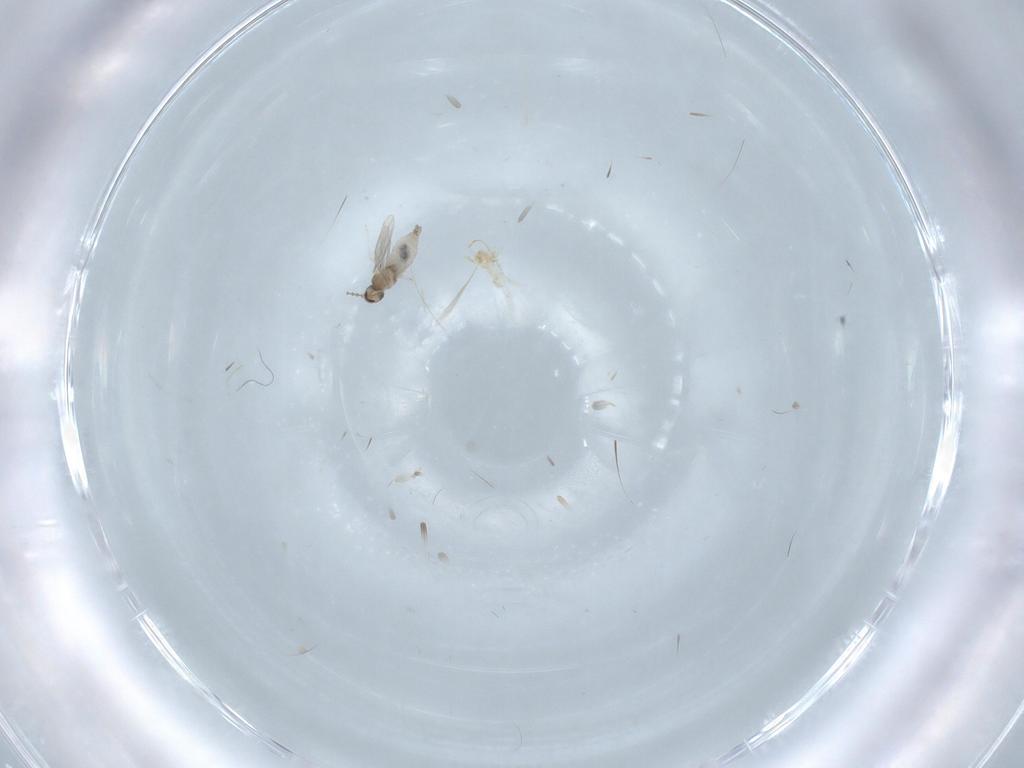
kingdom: Animalia
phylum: Arthropoda
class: Insecta
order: Diptera
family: Cecidomyiidae
